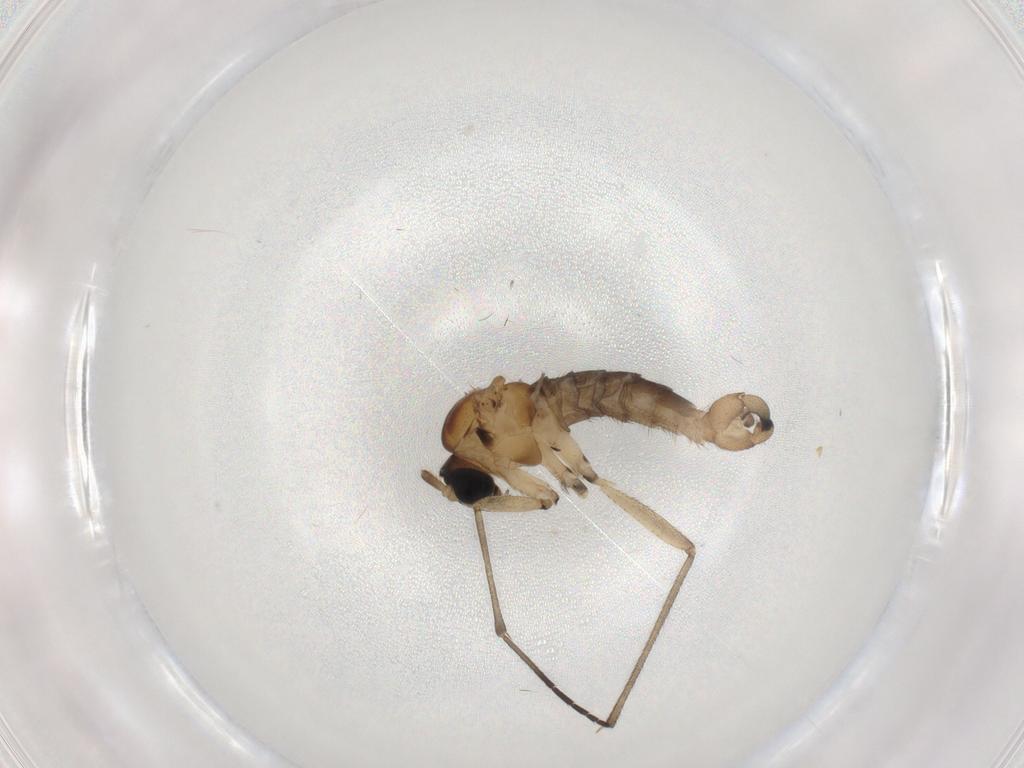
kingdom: Animalia
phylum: Arthropoda
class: Insecta
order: Diptera
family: Sciaridae
